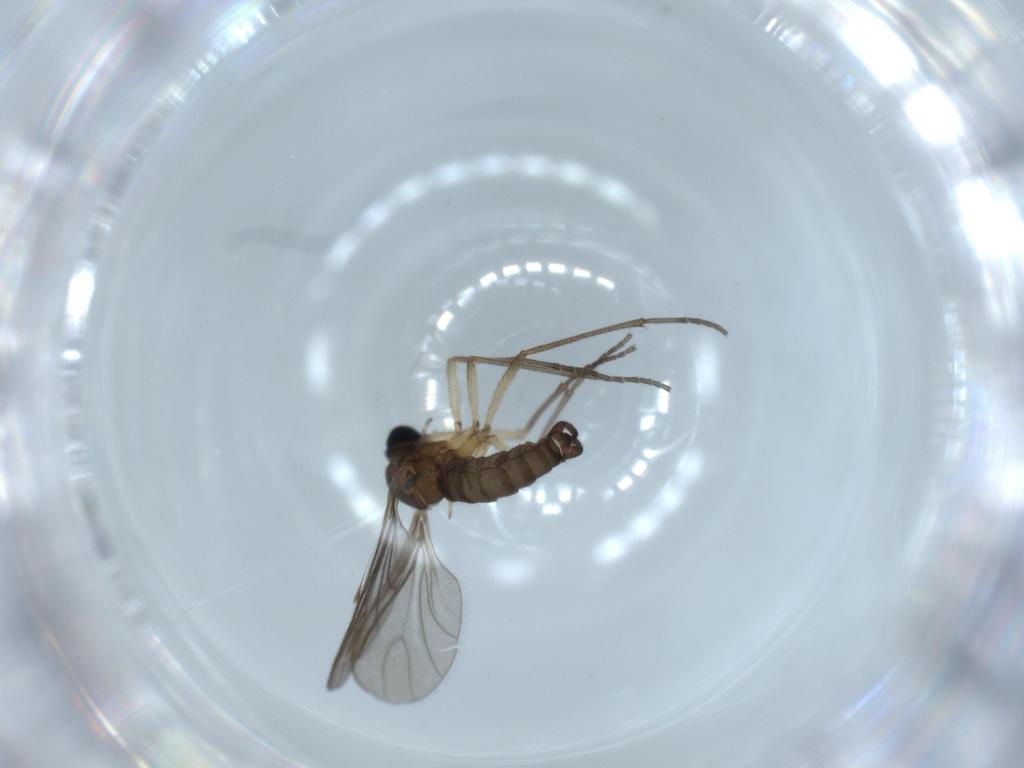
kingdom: Animalia
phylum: Arthropoda
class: Insecta
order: Diptera
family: Sciaridae
